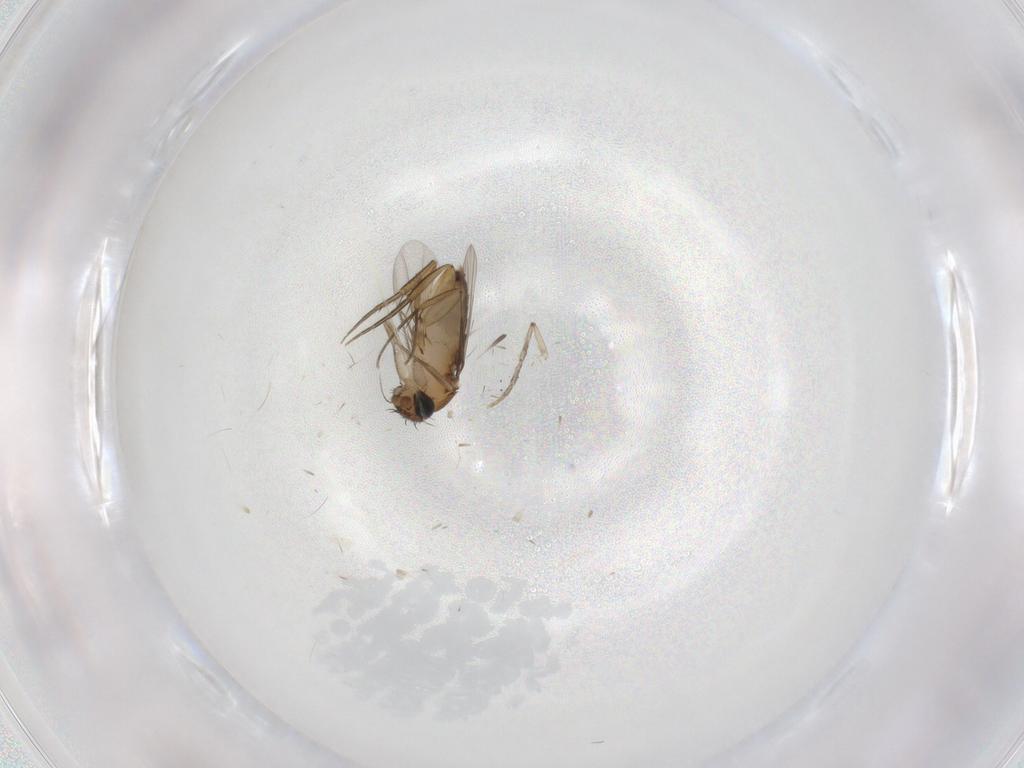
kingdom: Animalia
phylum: Arthropoda
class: Insecta
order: Diptera
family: Phoridae
